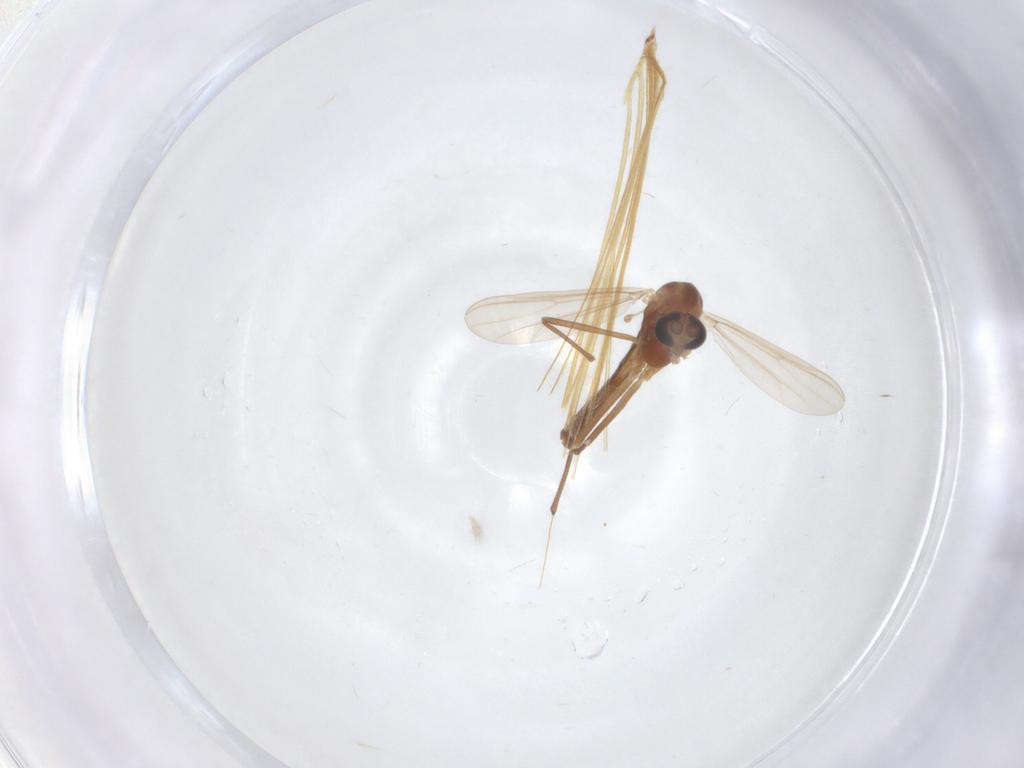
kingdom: Animalia
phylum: Arthropoda
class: Insecta
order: Diptera
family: Chironomidae
